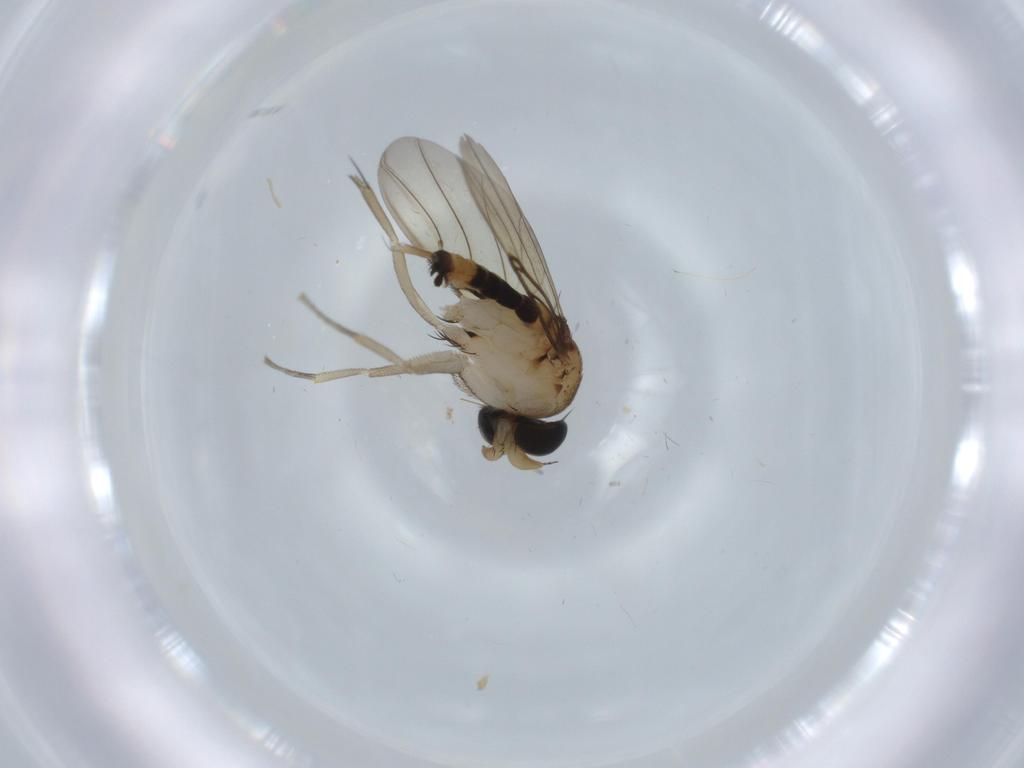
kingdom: Animalia
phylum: Arthropoda
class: Insecta
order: Diptera
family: Phoridae
